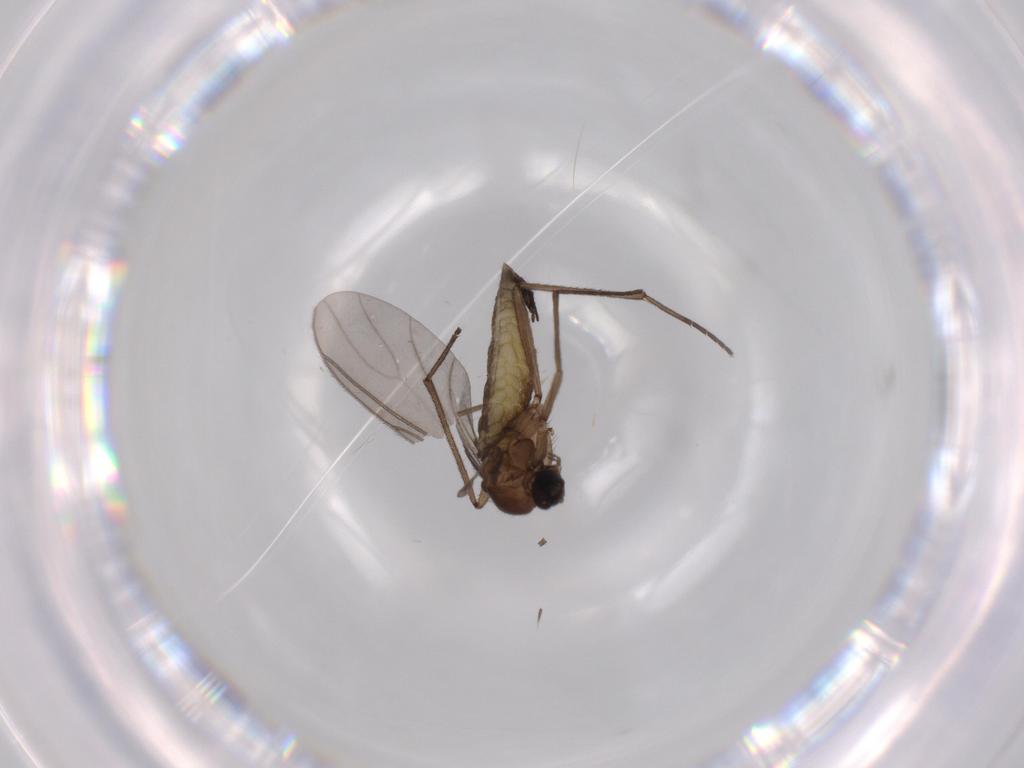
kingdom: Animalia
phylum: Arthropoda
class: Insecta
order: Diptera
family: Sciaridae
